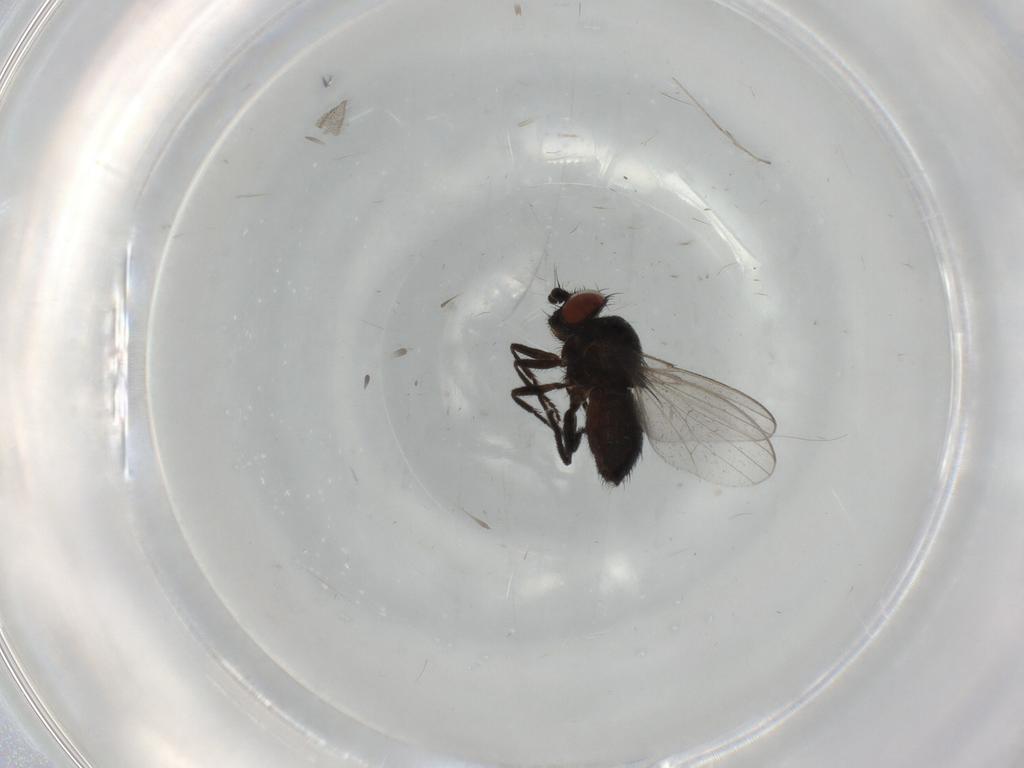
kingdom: Animalia
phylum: Arthropoda
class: Insecta
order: Diptera
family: Milichiidae
